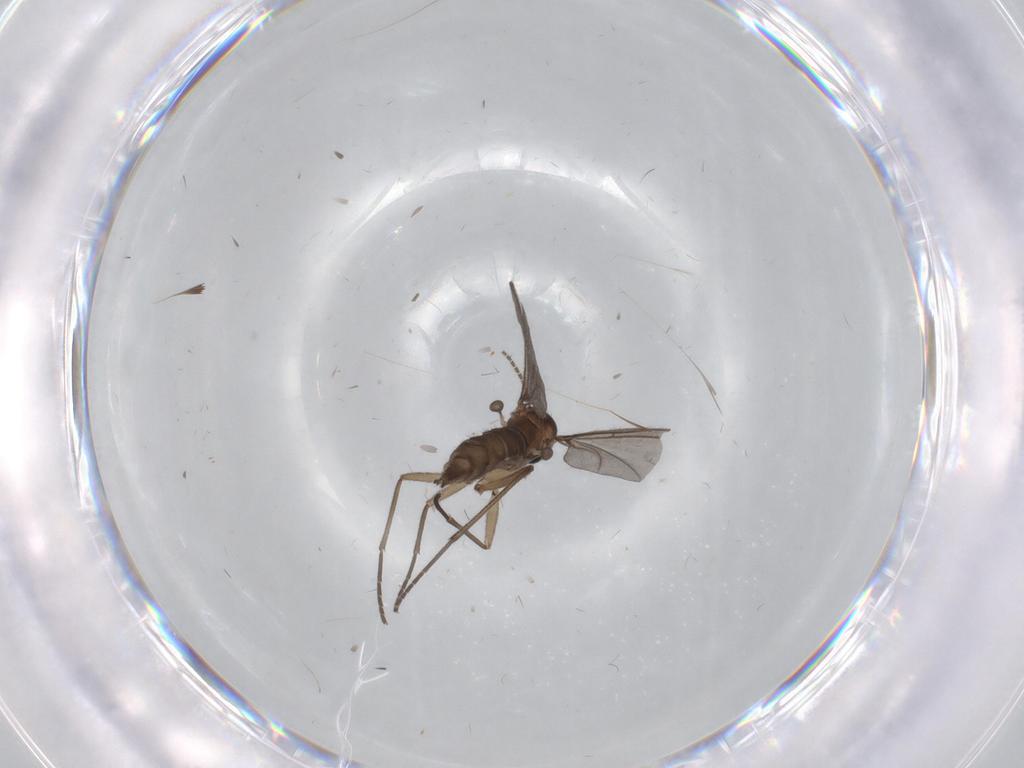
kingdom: Animalia
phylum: Arthropoda
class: Insecta
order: Diptera
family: Sciaridae
